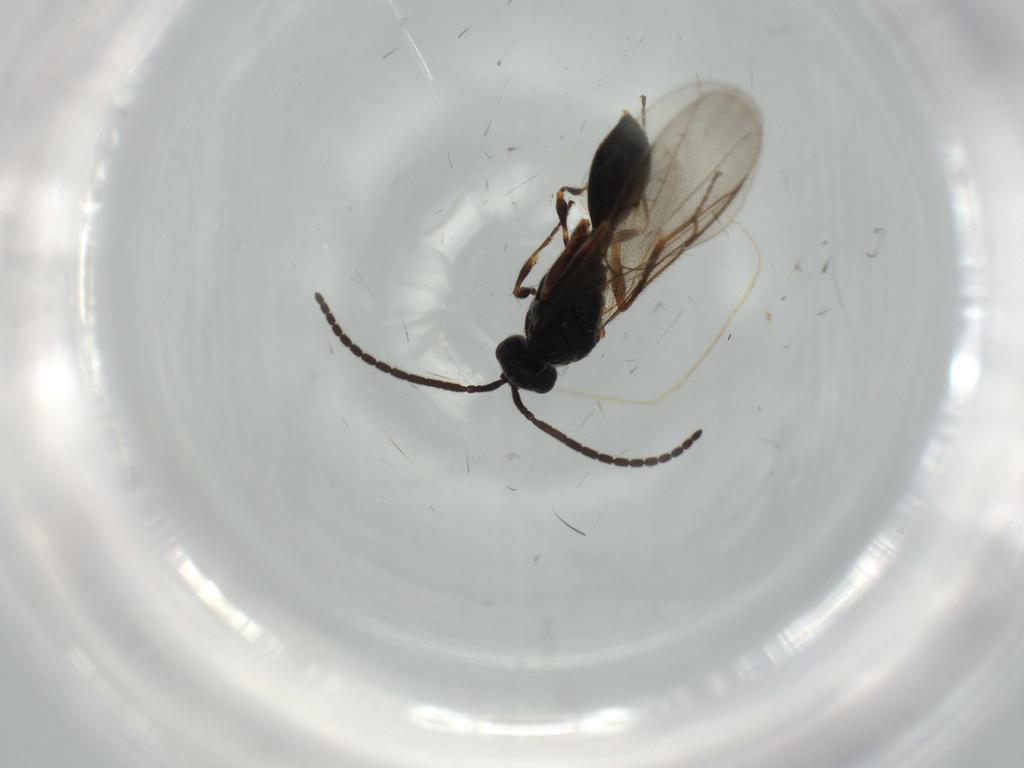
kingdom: Animalia
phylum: Arthropoda
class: Insecta
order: Hymenoptera
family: Diapriidae
